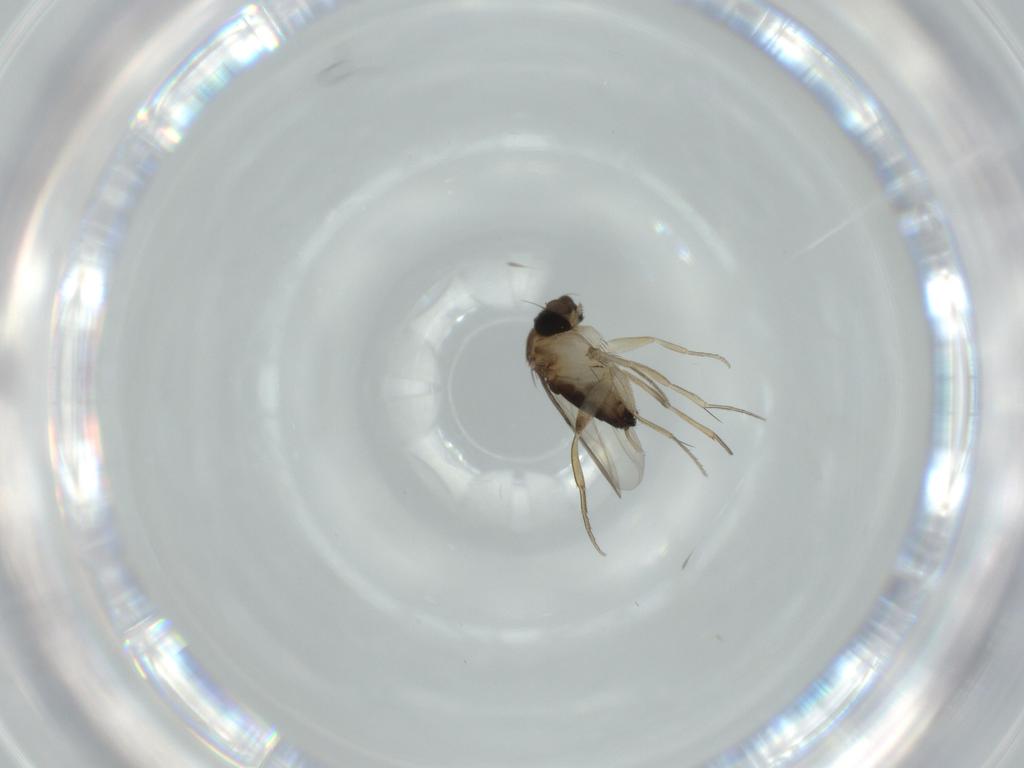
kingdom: Animalia
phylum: Arthropoda
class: Insecta
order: Diptera
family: Phoridae
